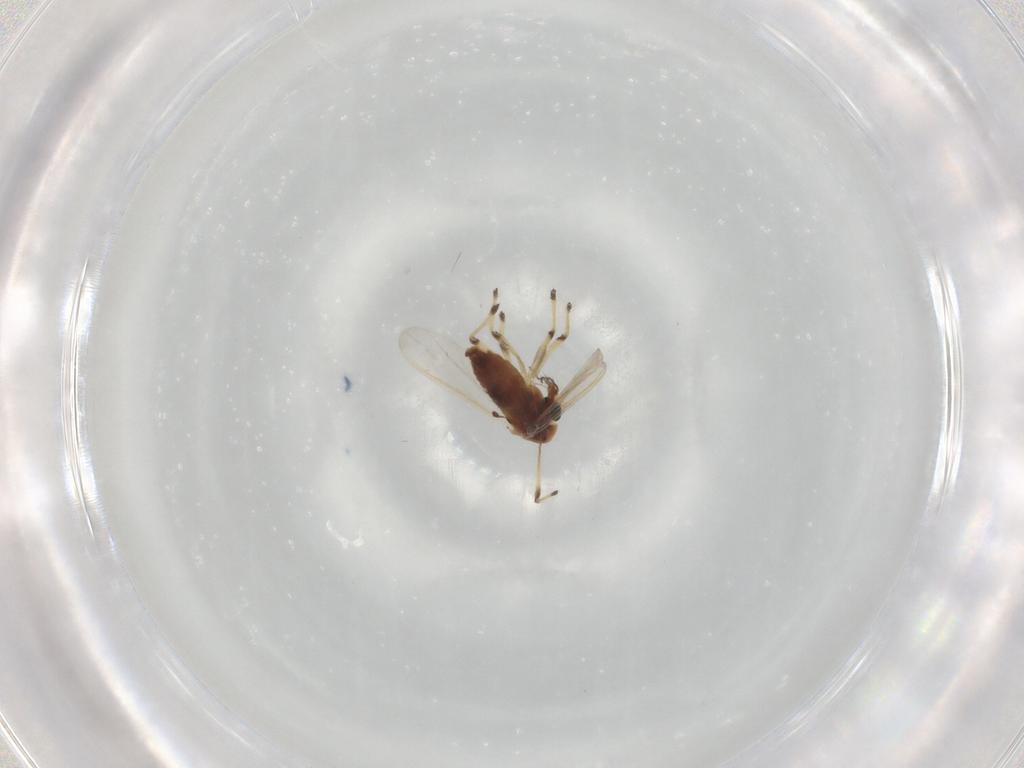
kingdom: Animalia
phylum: Arthropoda
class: Insecta
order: Diptera
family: Chironomidae
